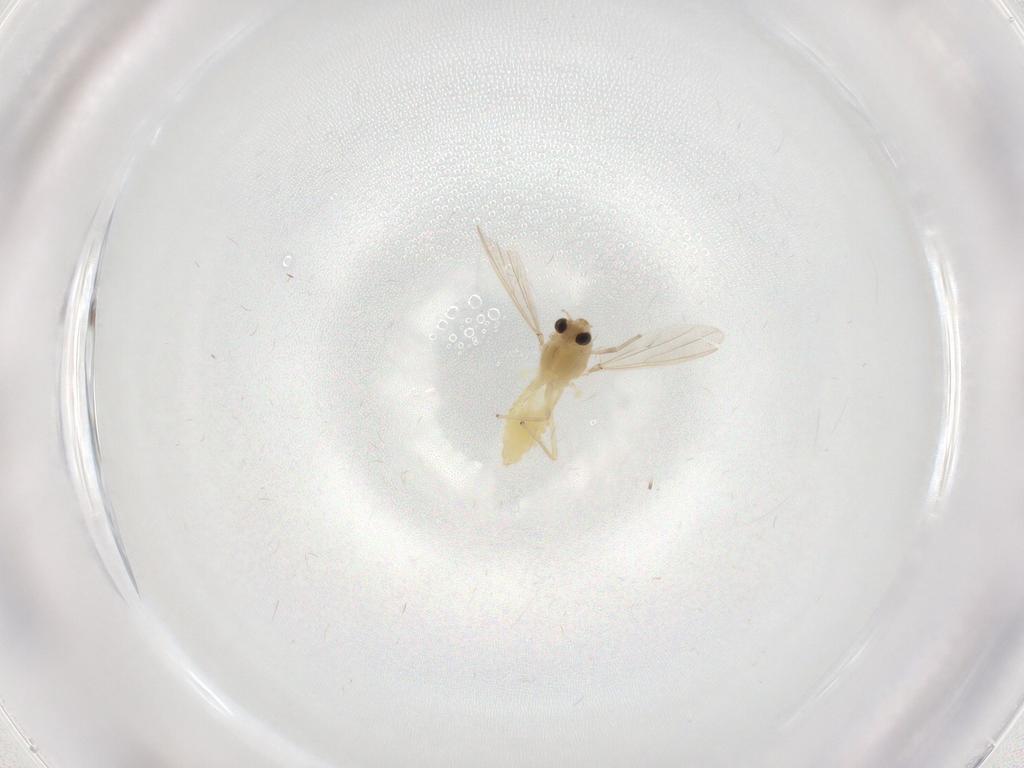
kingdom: Animalia
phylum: Arthropoda
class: Insecta
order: Diptera
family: Chironomidae
